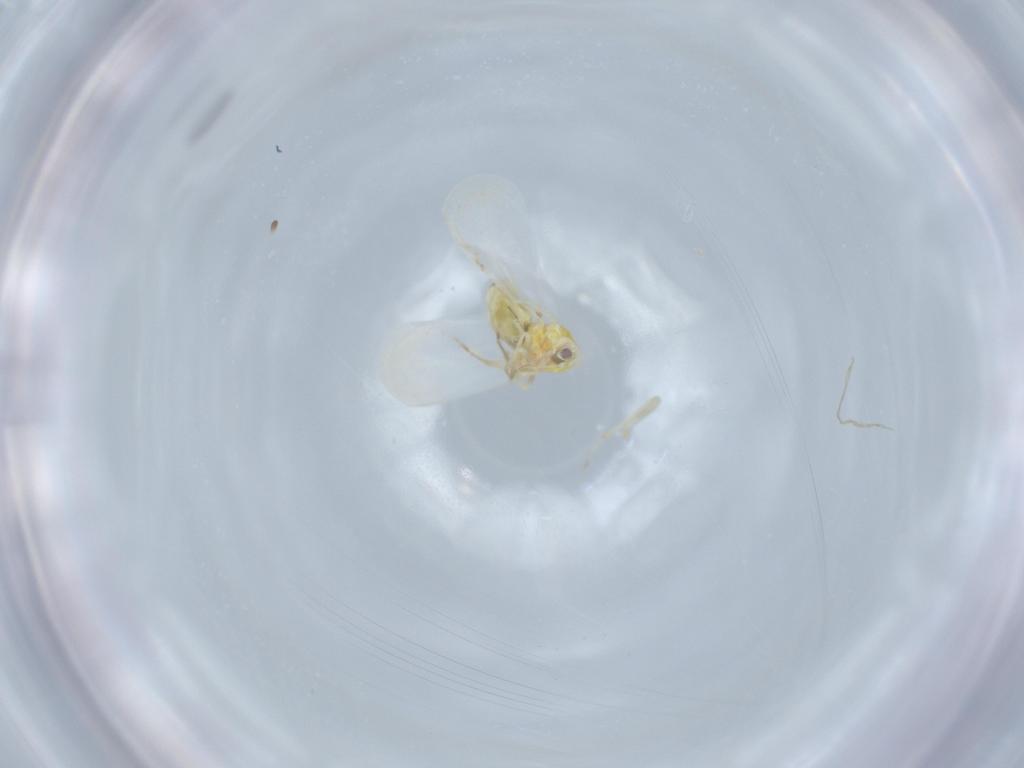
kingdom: Animalia
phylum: Arthropoda
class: Insecta
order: Hemiptera
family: Aleyrodidae
